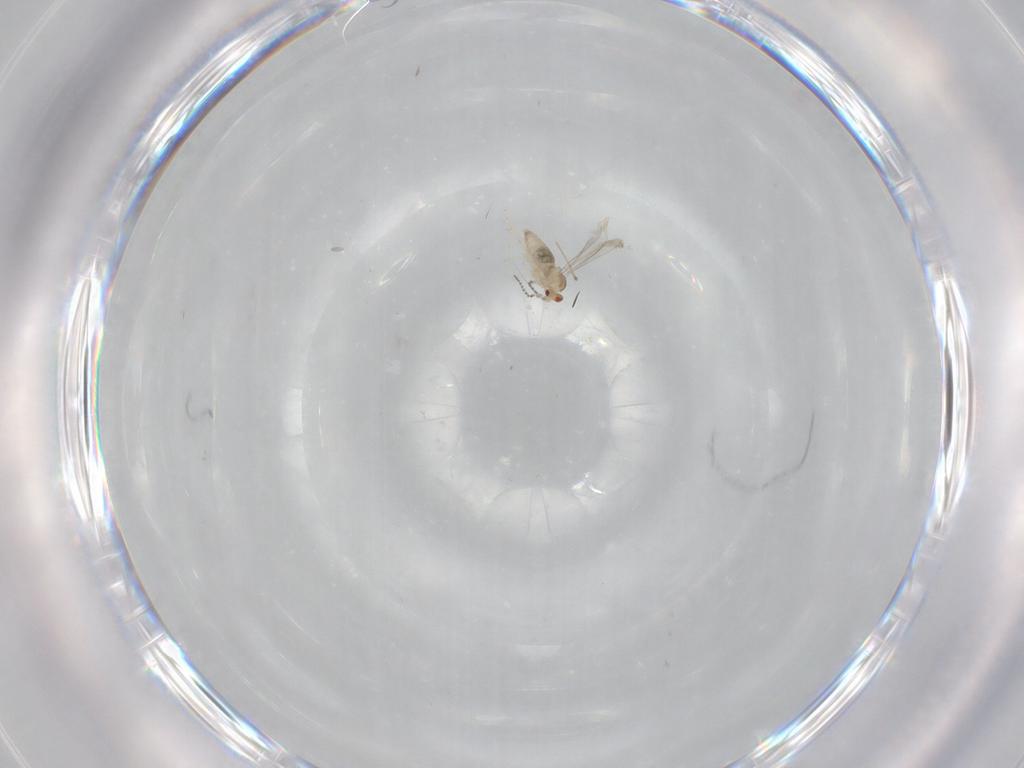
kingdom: Animalia
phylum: Arthropoda
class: Insecta
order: Diptera
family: Cecidomyiidae
